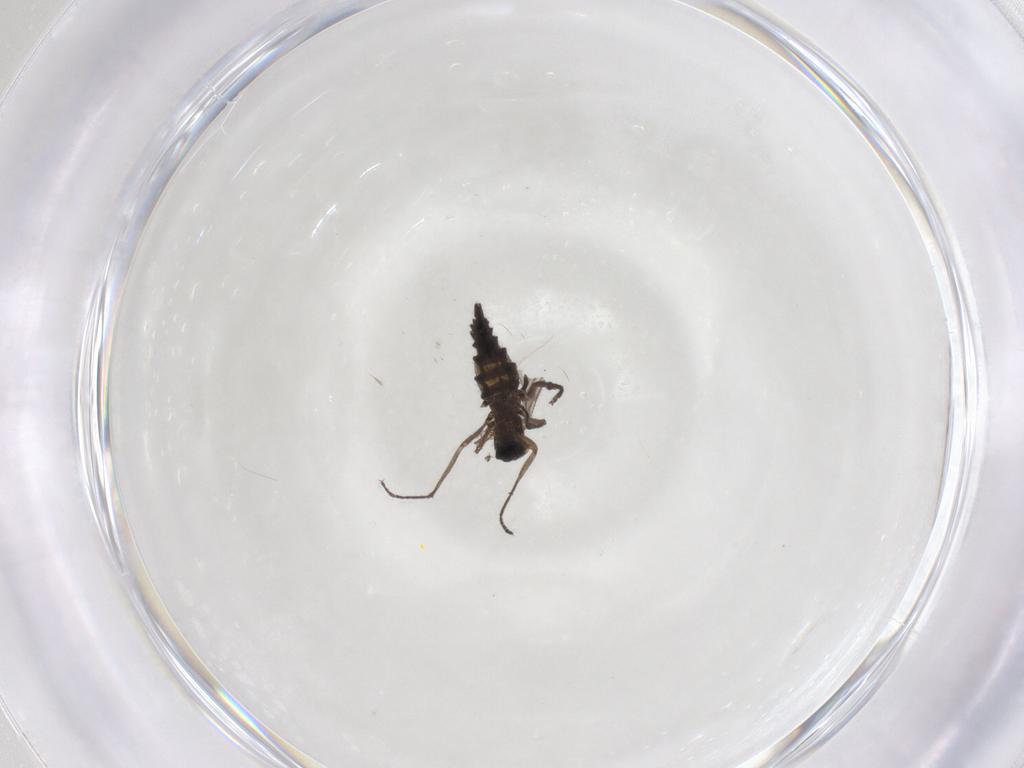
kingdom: Animalia
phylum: Arthropoda
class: Insecta
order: Diptera
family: Sciaridae
